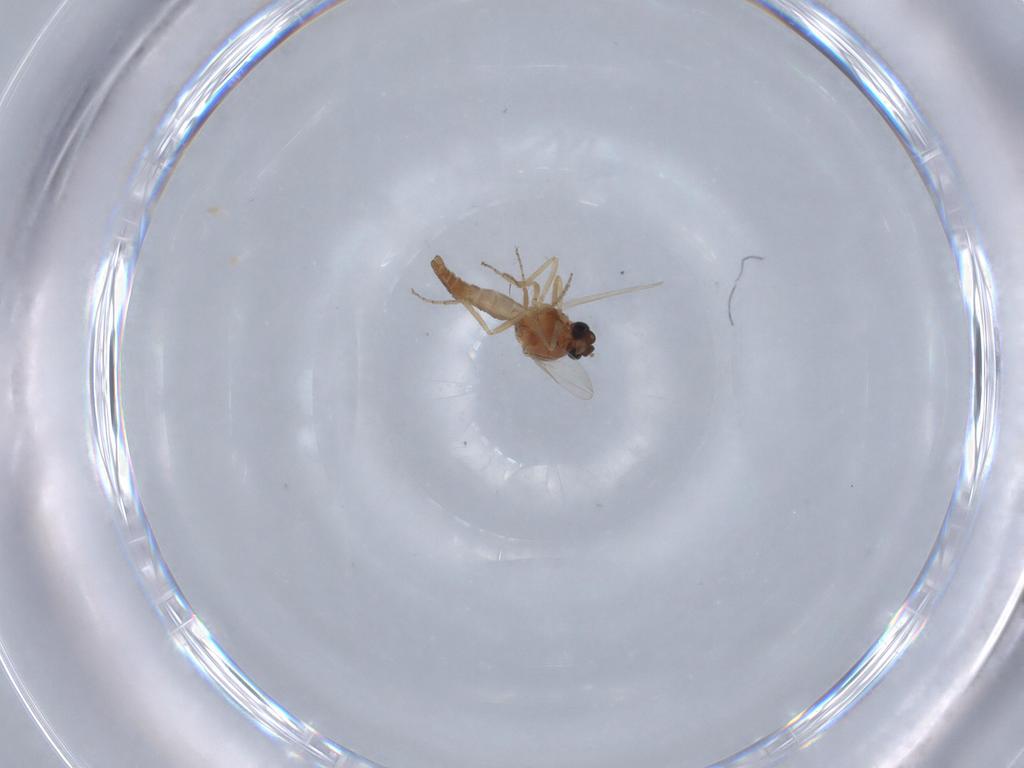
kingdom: Animalia
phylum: Arthropoda
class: Insecta
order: Diptera
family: Ceratopogonidae
